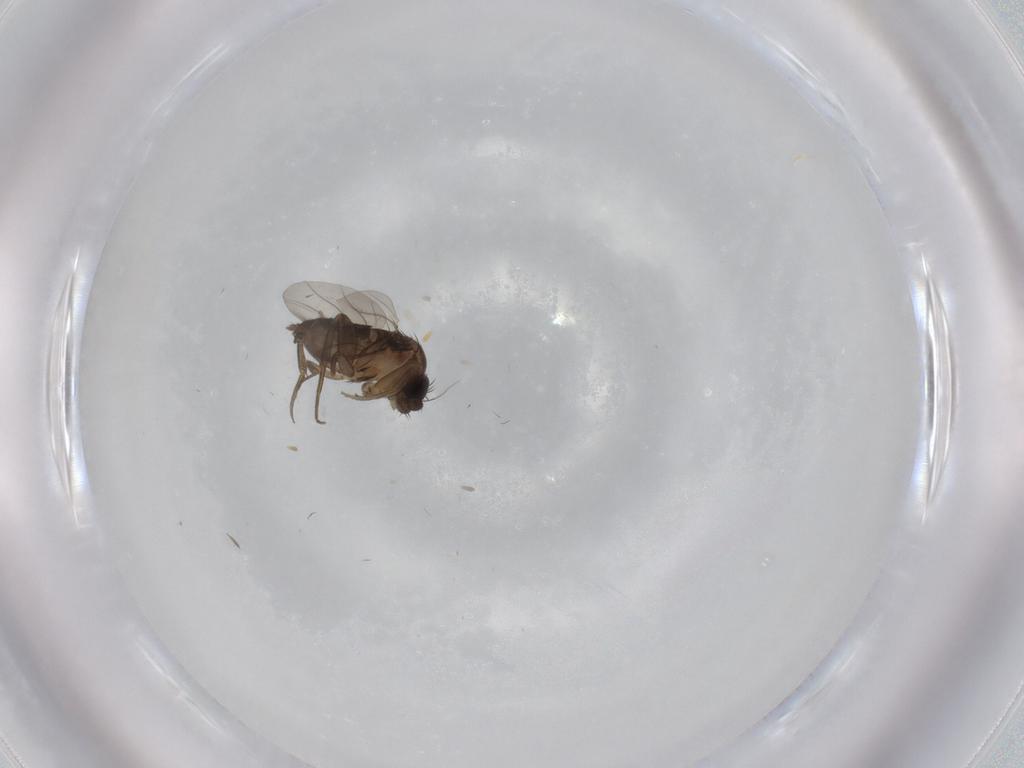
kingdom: Animalia
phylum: Arthropoda
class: Insecta
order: Diptera
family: Phoridae
